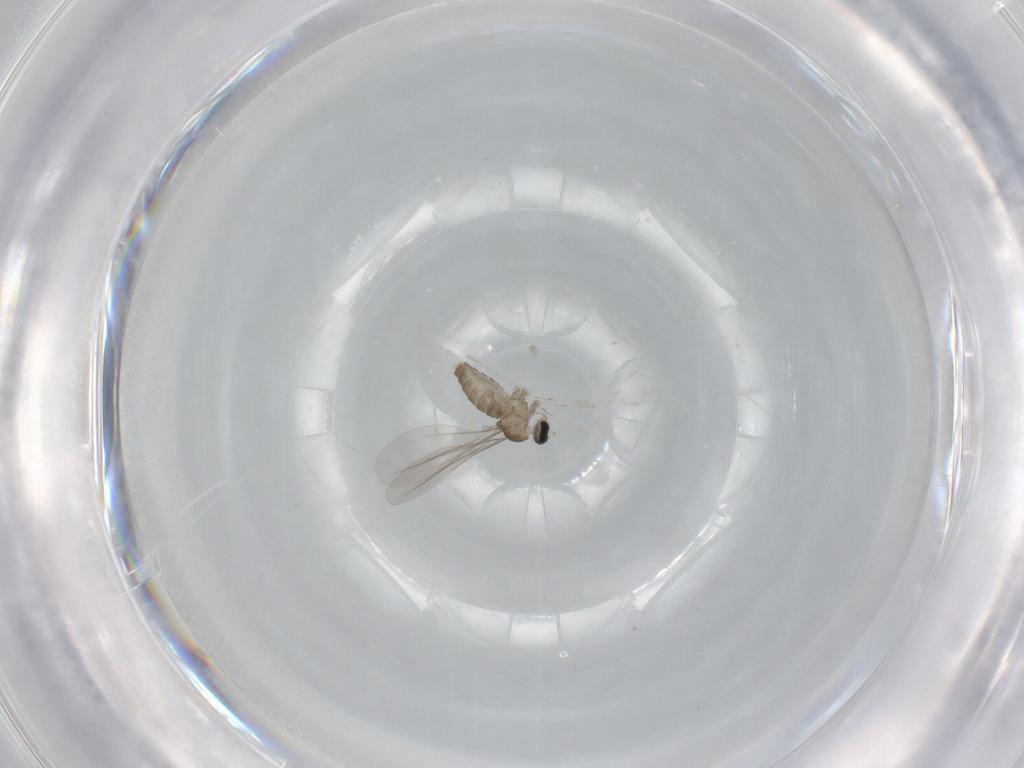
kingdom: Animalia
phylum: Arthropoda
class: Insecta
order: Diptera
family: Cecidomyiidae
